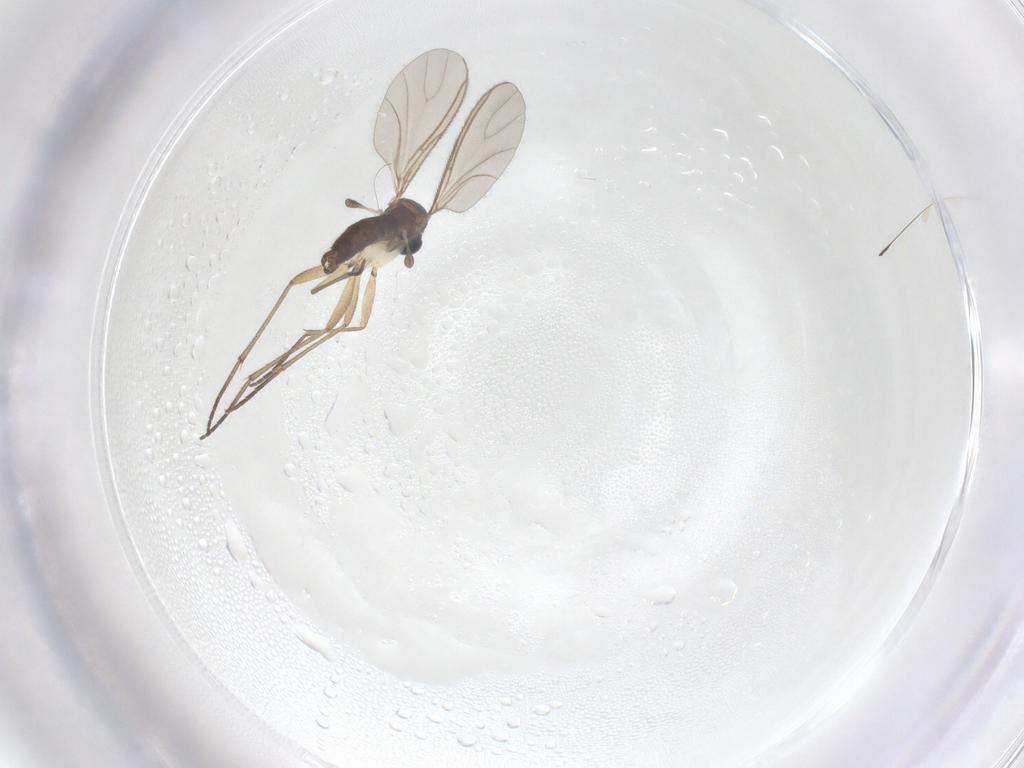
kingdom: Animalia
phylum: Arthropoda
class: Insecta
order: Diptera
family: Sciaridae
